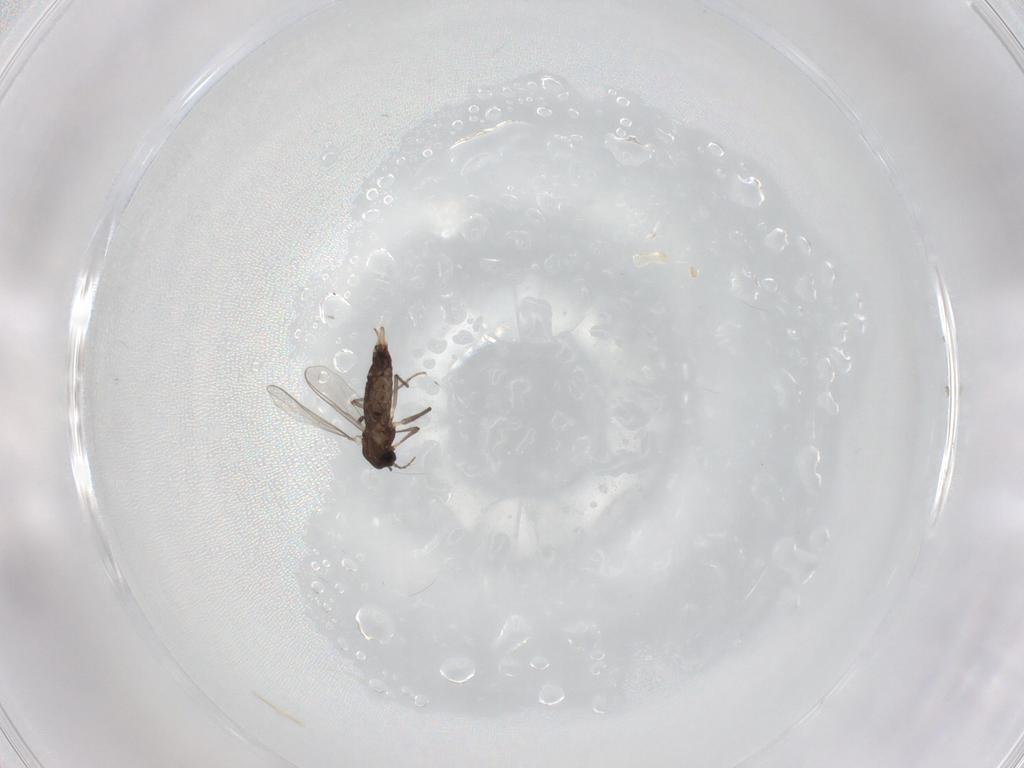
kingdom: Animalia
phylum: Arthropoda
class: Insecta
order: Diptera
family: Chironomidae
